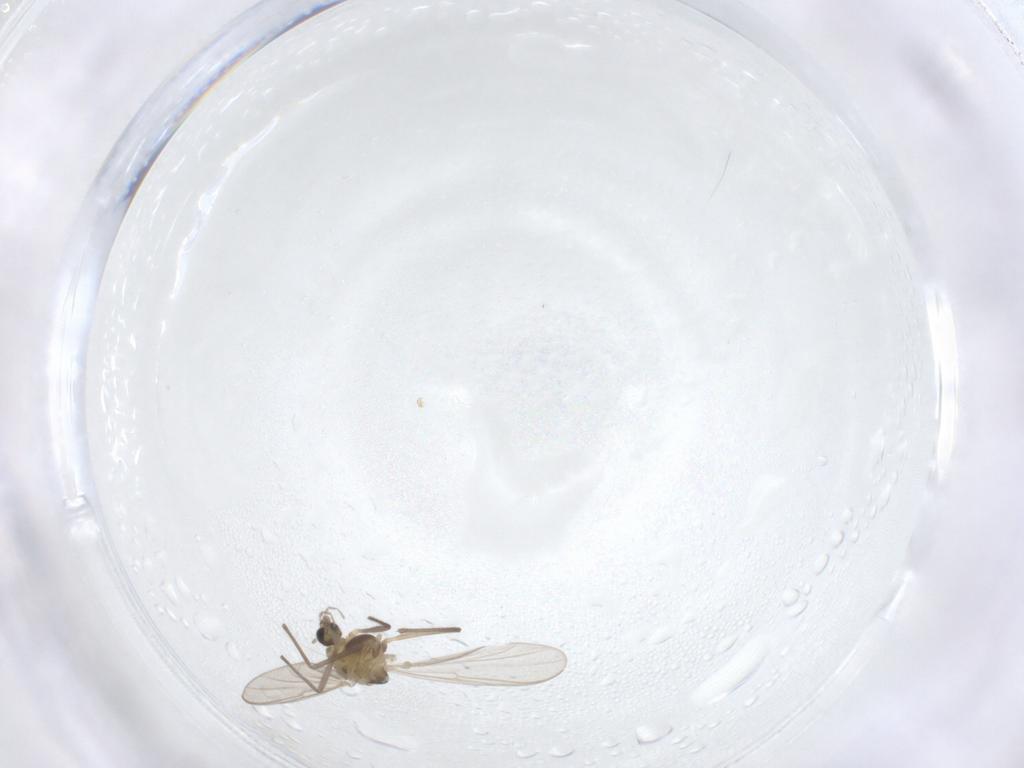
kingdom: Animalia
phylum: Arthropoda
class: Insecta
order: Diptera
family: Chironomidae
